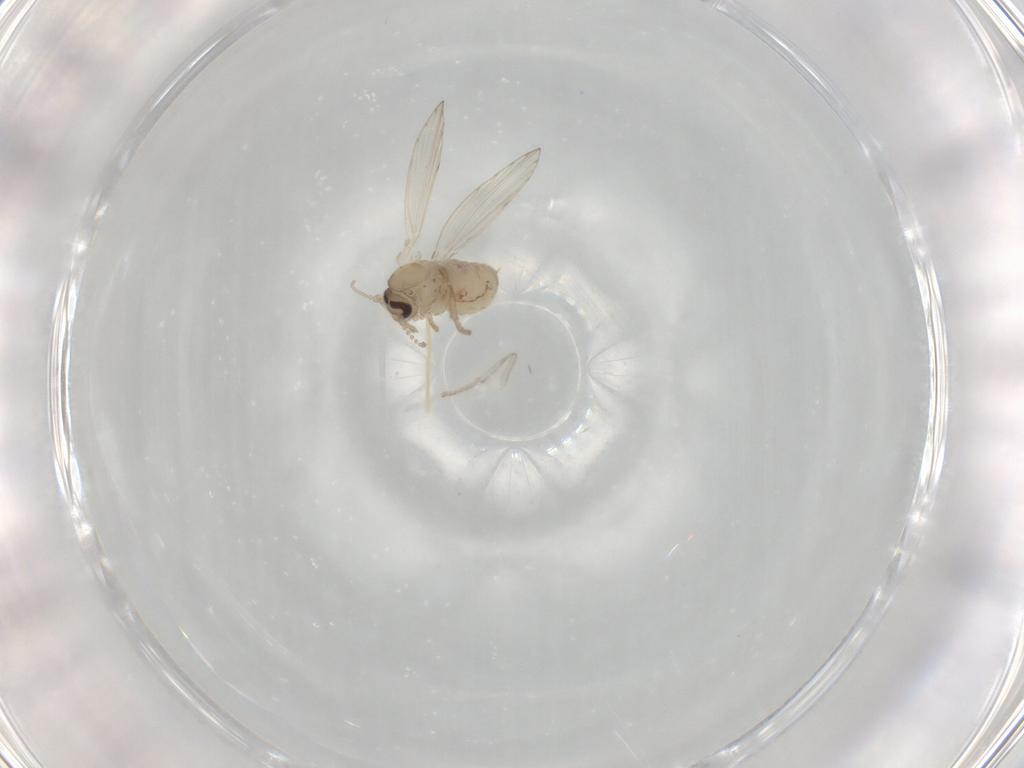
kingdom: Animalia
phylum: Arthropoda
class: Insecta
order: Diptera
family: Psychodidae
